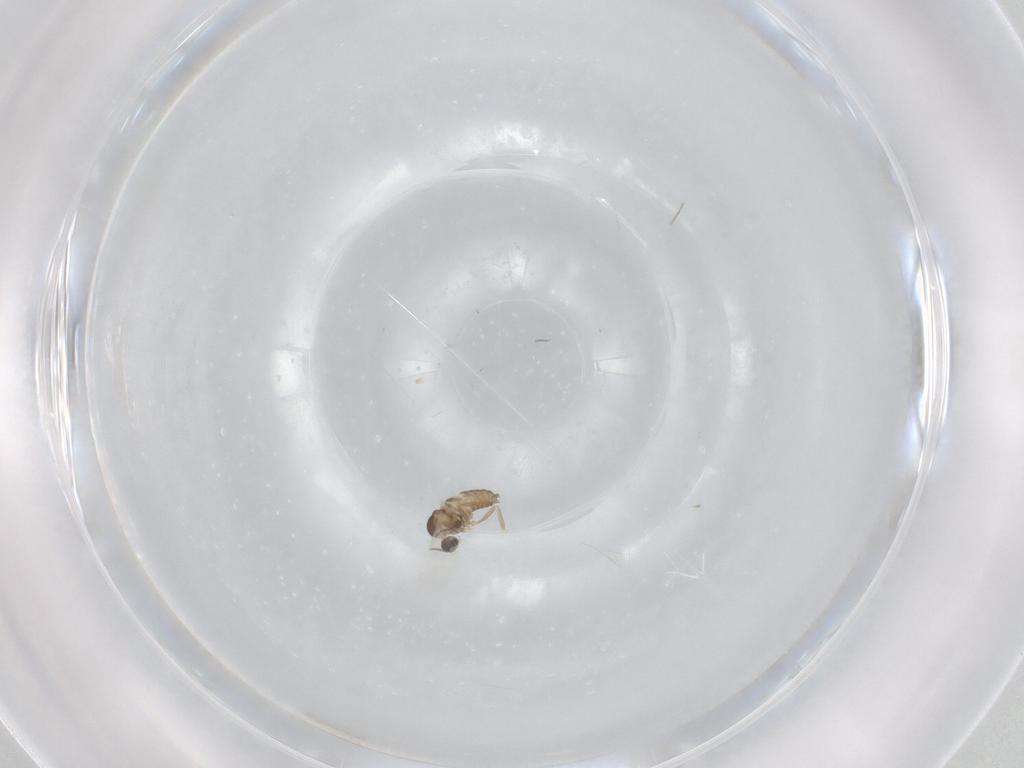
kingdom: Animalia
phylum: Arthropoda
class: Insecta
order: Diptera
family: Cecidomyiidae
